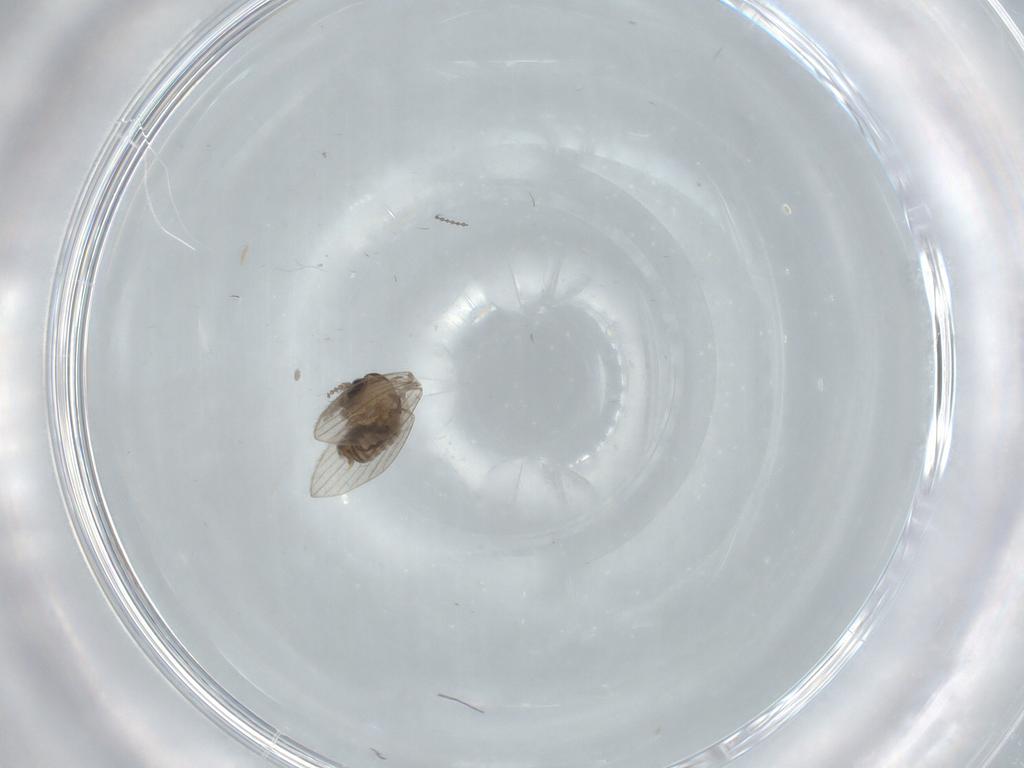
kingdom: Animalia
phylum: Arthropoda
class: Insecta
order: Diptera
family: Psychodidae
